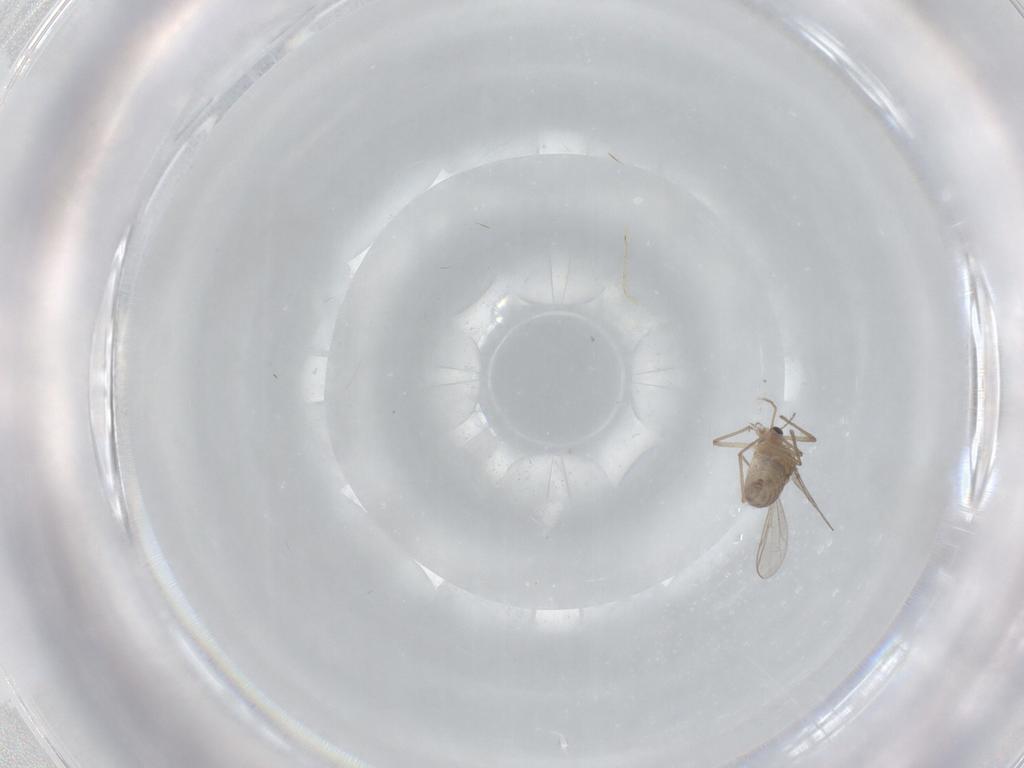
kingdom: Animalia
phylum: Arthropoda
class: Insecta
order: Diptera
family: Chironomidae
